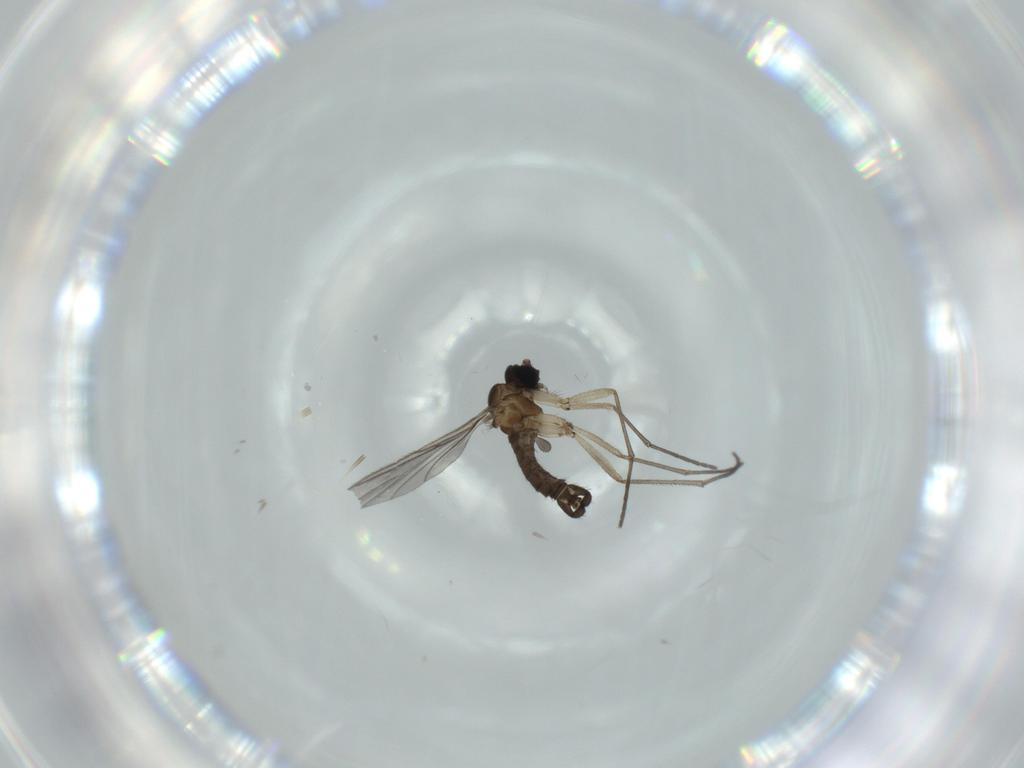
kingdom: Animalia
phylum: Arthropoda
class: Insecta
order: Diptera
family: Sciaridae
